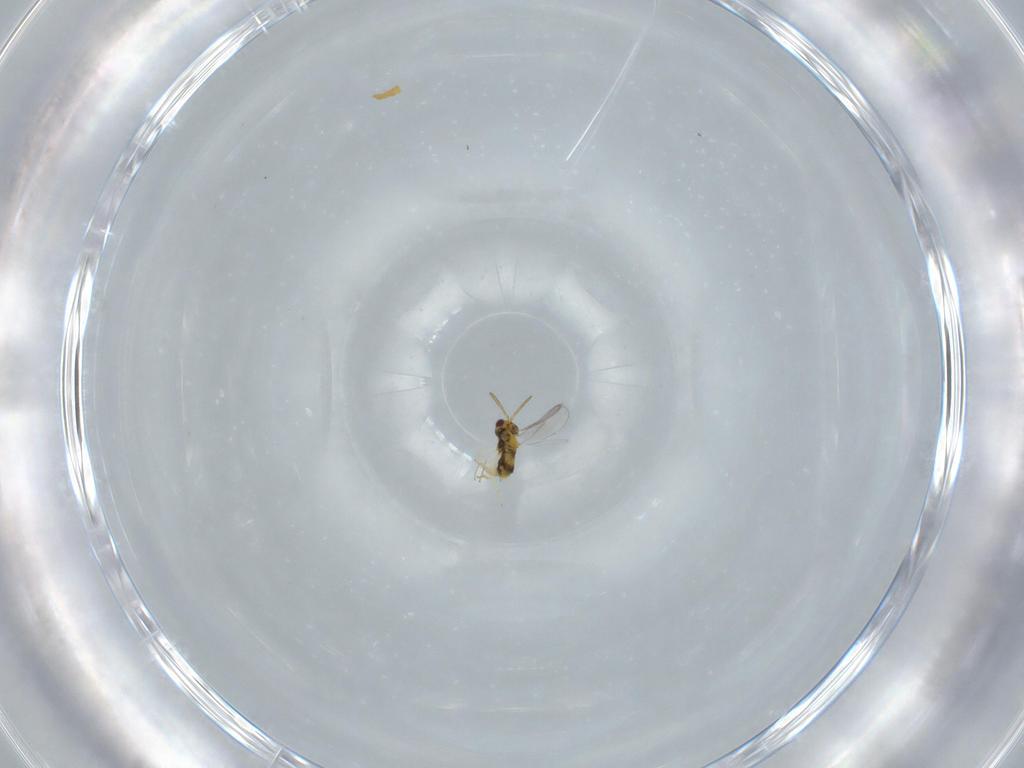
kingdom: Animalia
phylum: Arthropoda
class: Insecta
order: Hymenoptera
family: Aphelinidae
